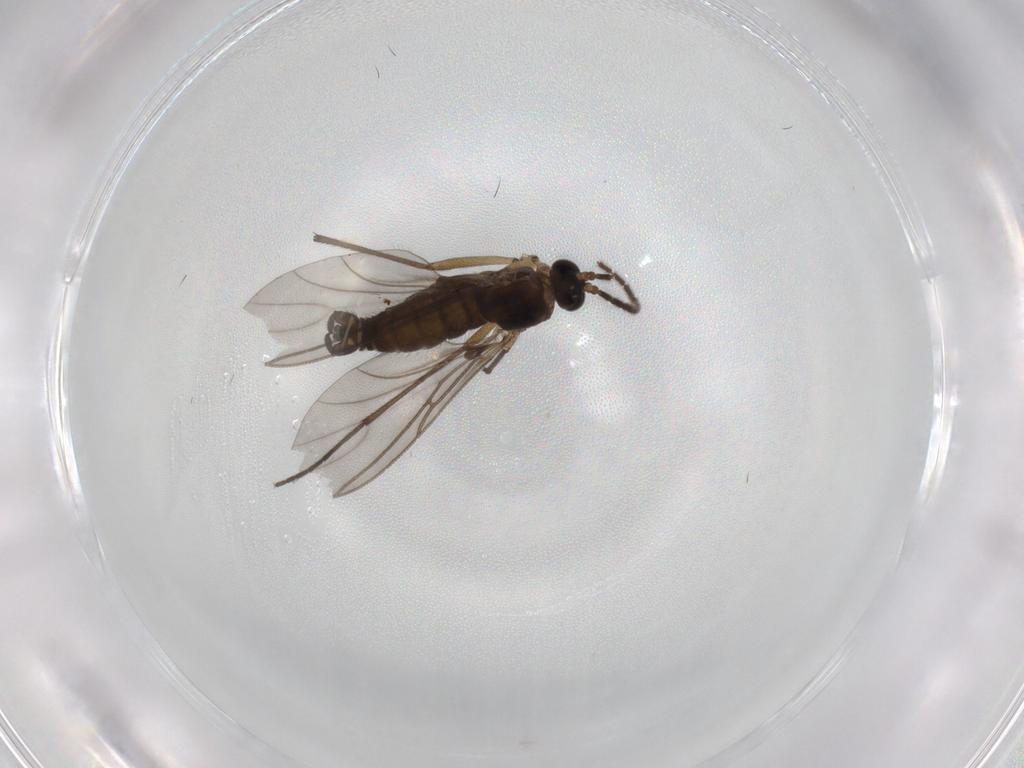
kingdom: Animalia
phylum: Arthropoda
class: Insecta
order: Diptera
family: Sciaridae
